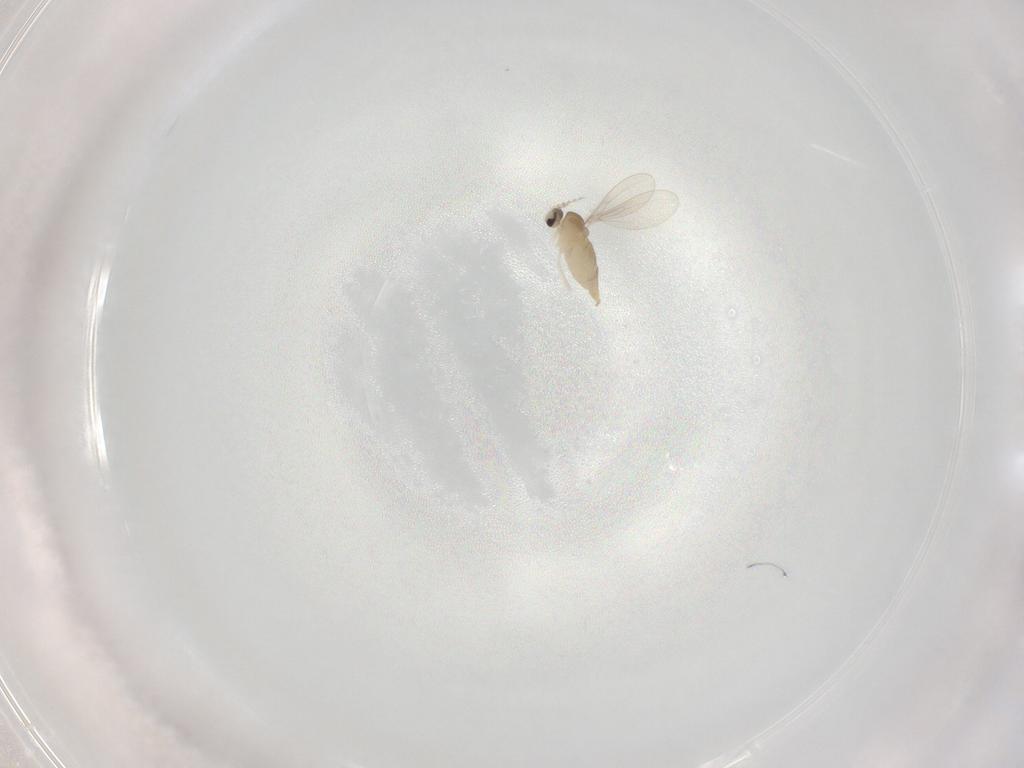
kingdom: Animalia
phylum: Arthropoda
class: Insecta
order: Diptera
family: Cecidomyiidae
